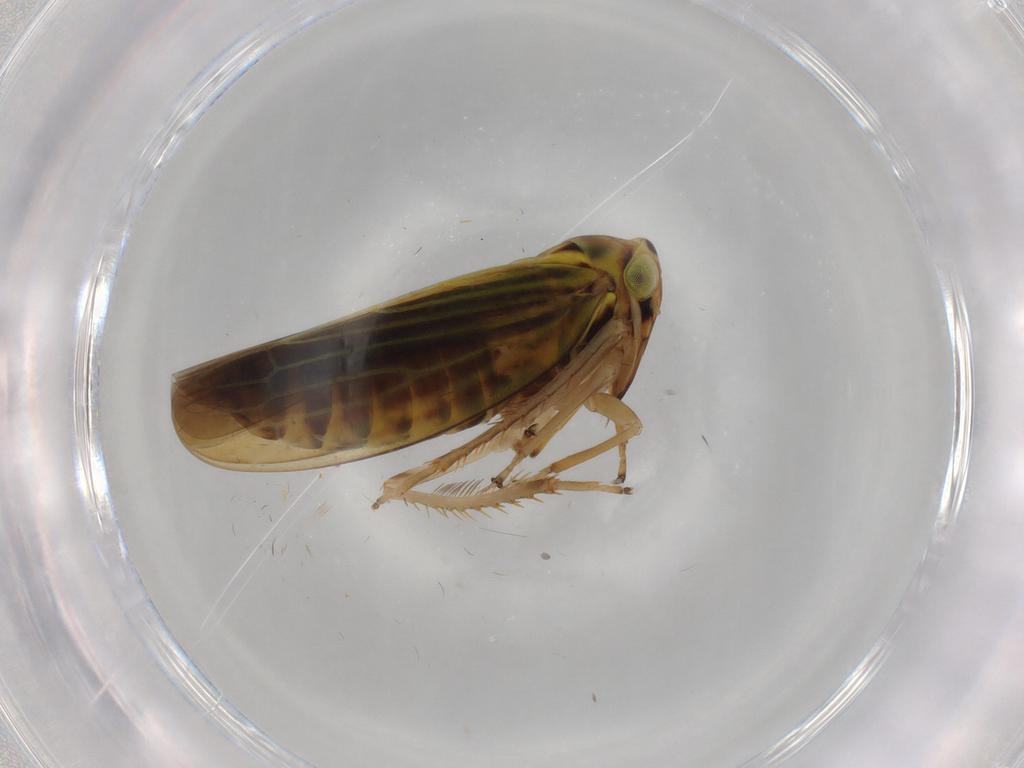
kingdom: Animalia
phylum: Arthropoda
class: Insecta
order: Hemiptera
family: Cicadellidae
